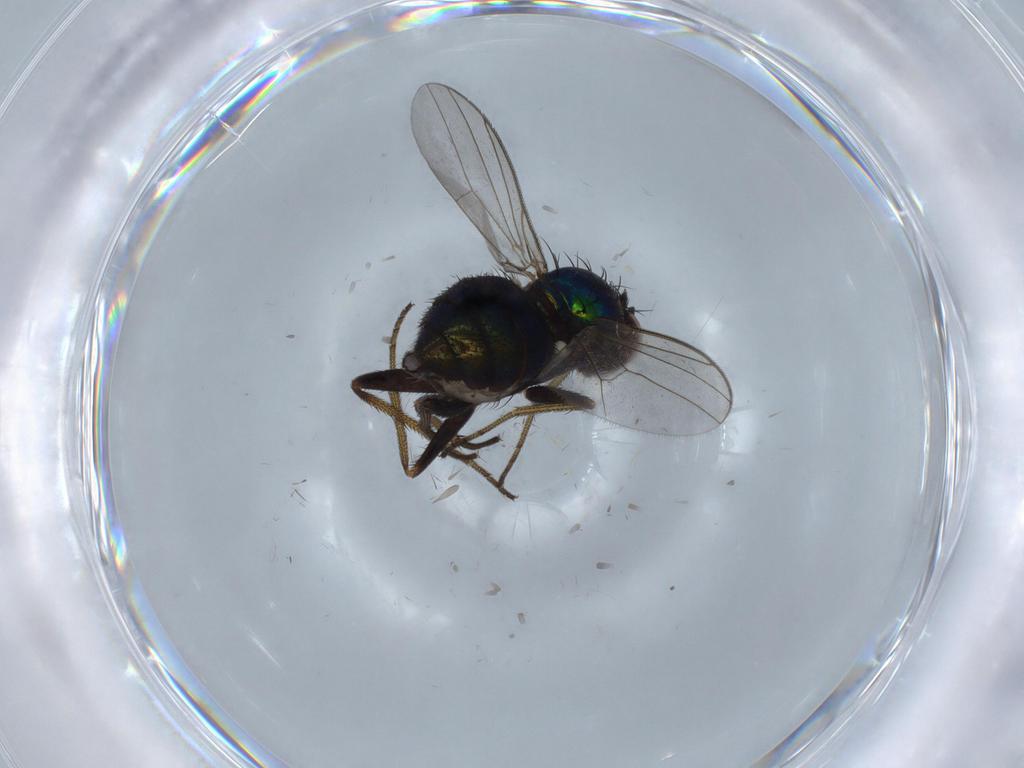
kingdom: Animalia
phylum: Arthropoda
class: Insecta
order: Diptera
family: Dolichopodidae
